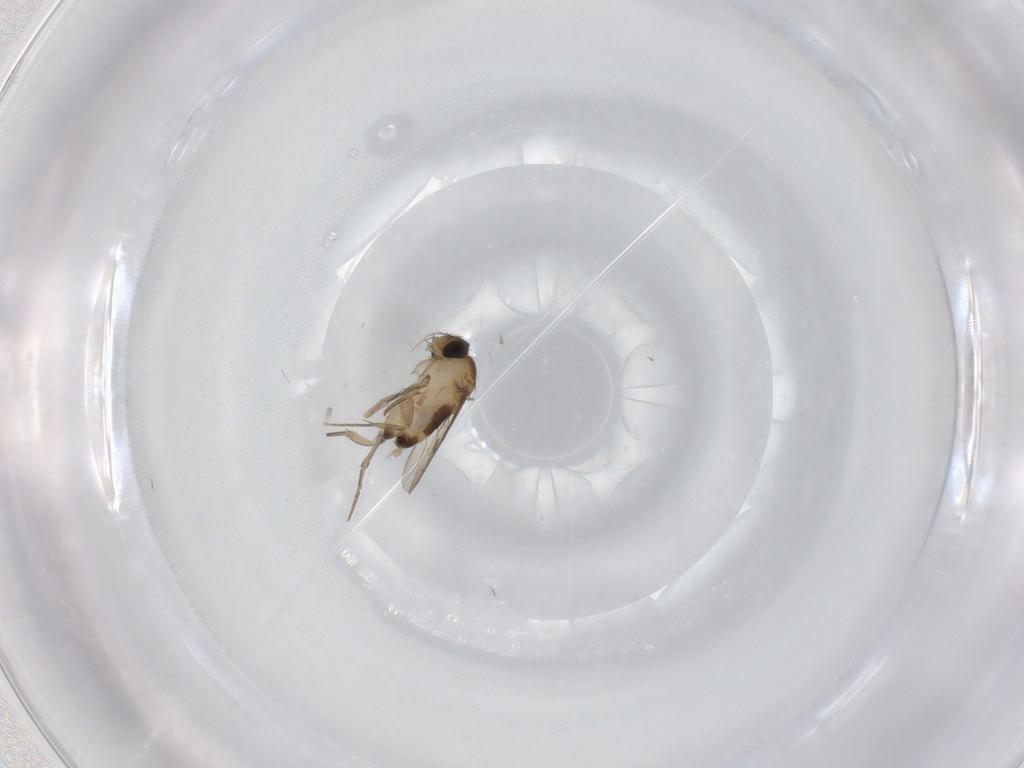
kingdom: Animalia
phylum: Arthropoda
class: Insecta
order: Diptera
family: Phoridae
